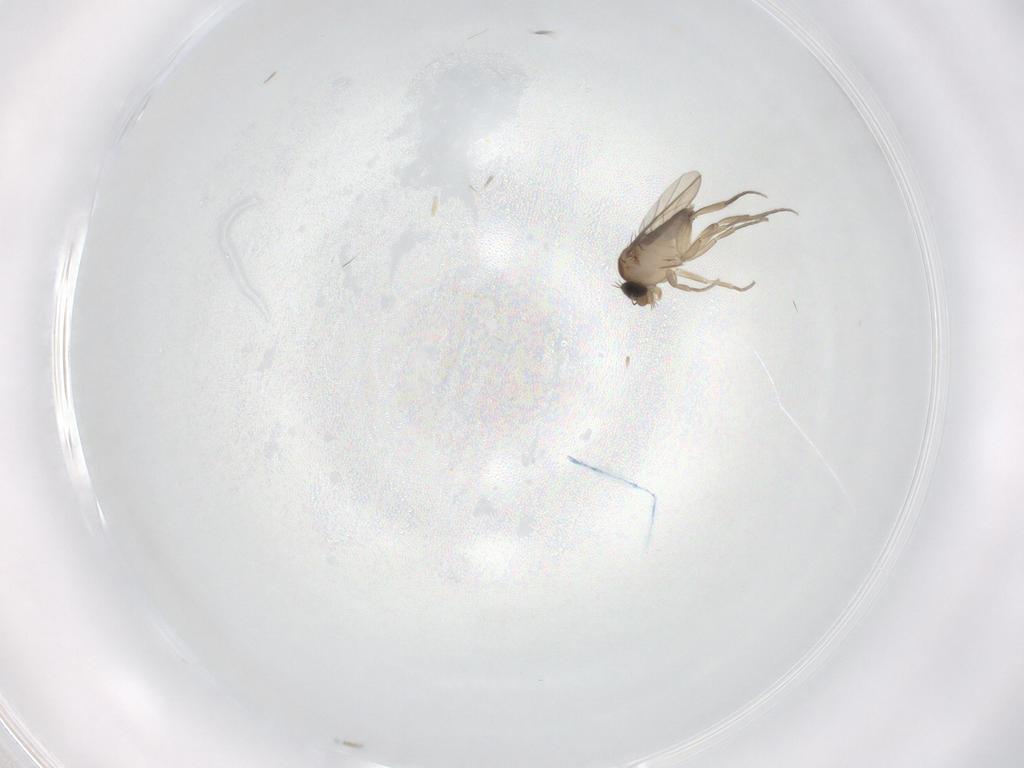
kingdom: Animalia
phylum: Arthropoda
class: Insecta
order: Diptera
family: Phoridae
